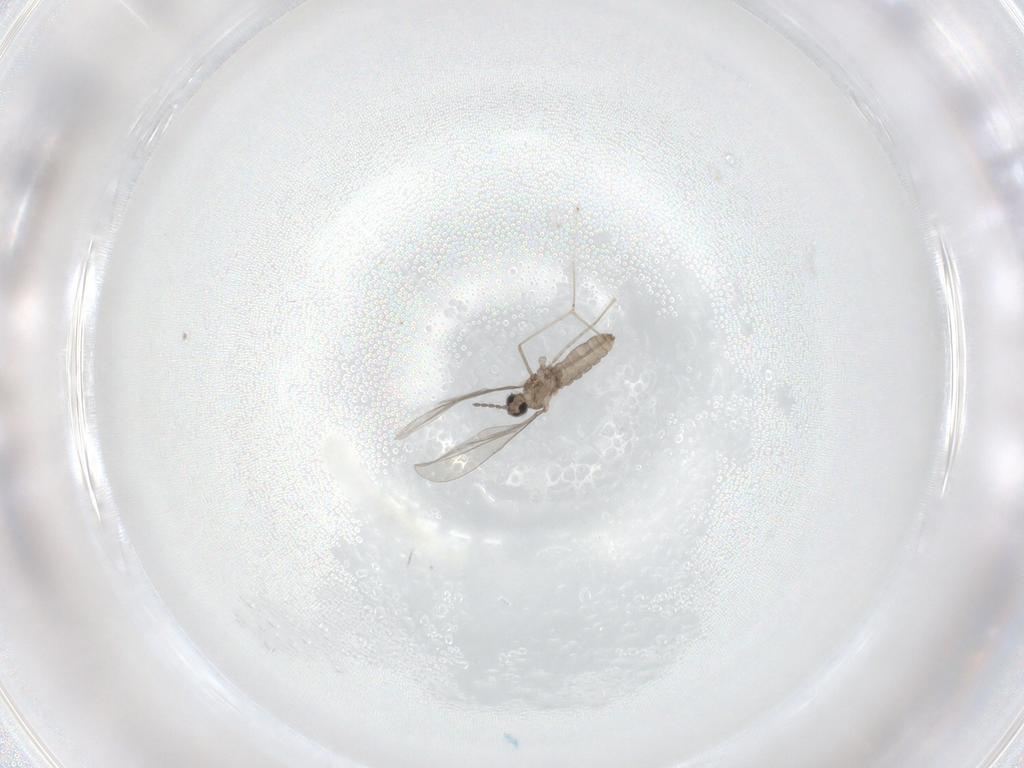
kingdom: Animalia
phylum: Arthropoda
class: Insecta
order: Diptera
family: Cecidomyiidae
